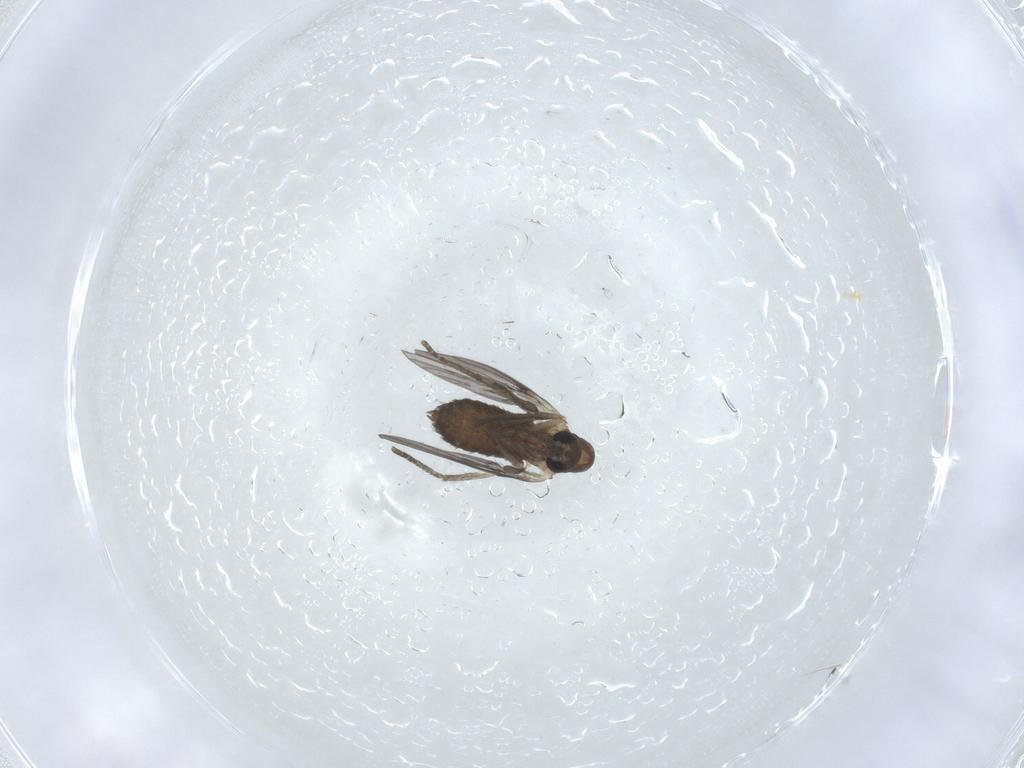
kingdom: Animalia
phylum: Arthropoda
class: Insecta
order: Diptera
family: Psychodidae
